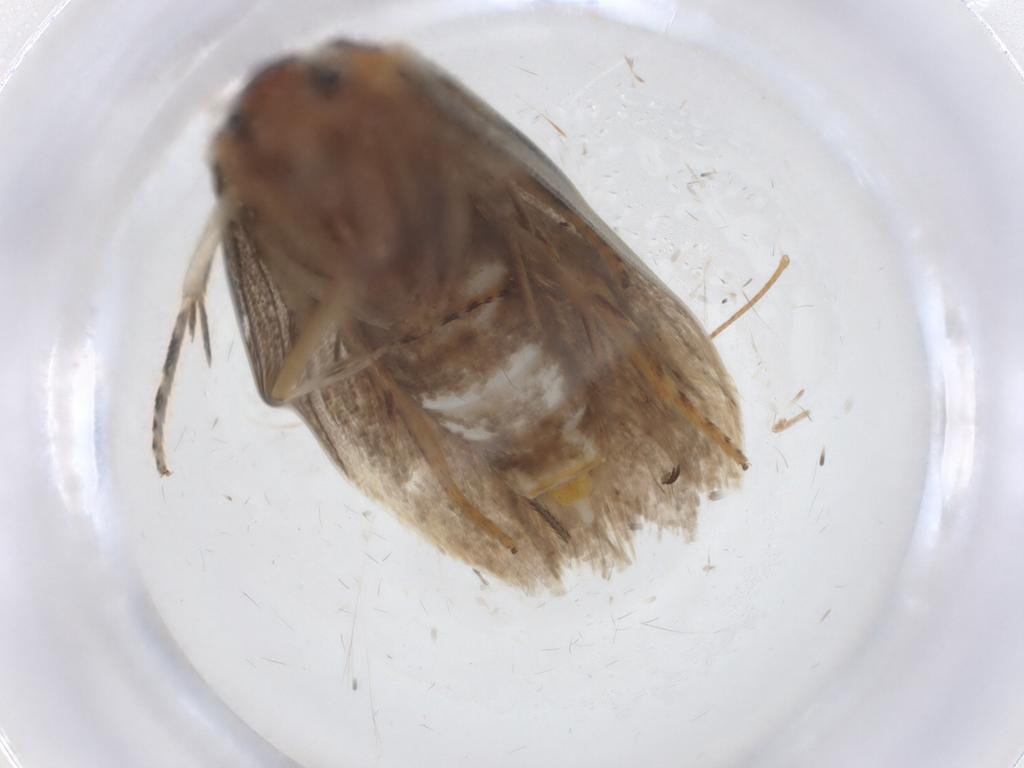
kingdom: Animalia
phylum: Arthropoda
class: Insecta
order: Lepidoptera
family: Oecophoridae
